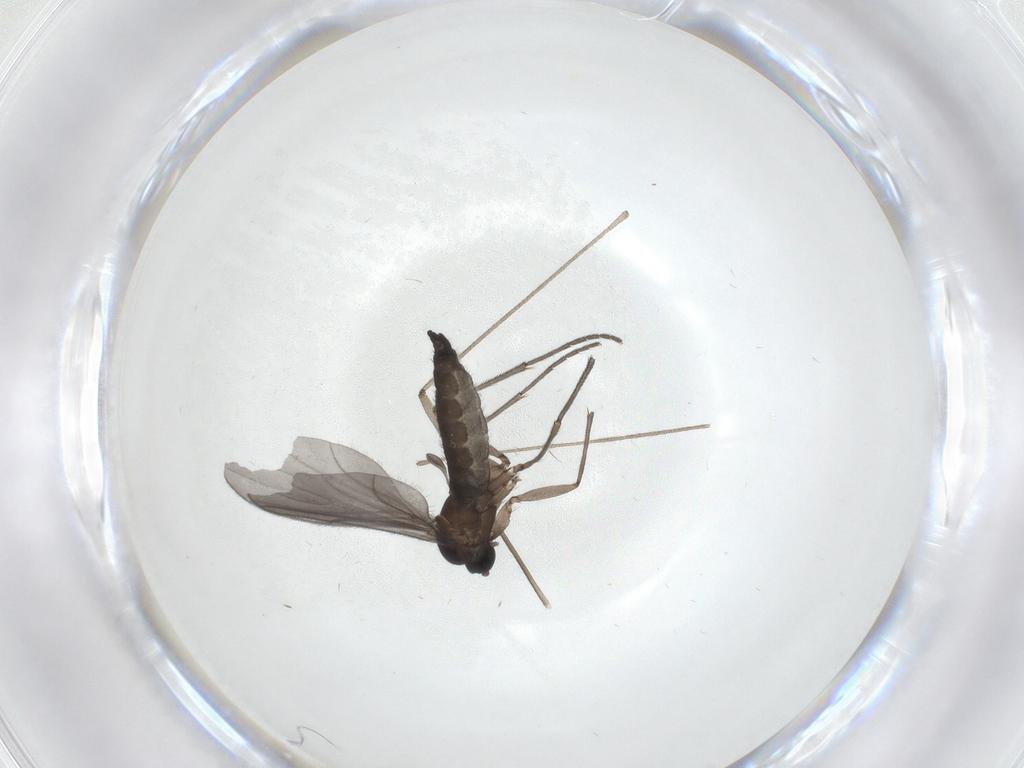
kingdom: Animalia
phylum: Arthropoda
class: Insecta
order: Diptera
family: Sciaridae
